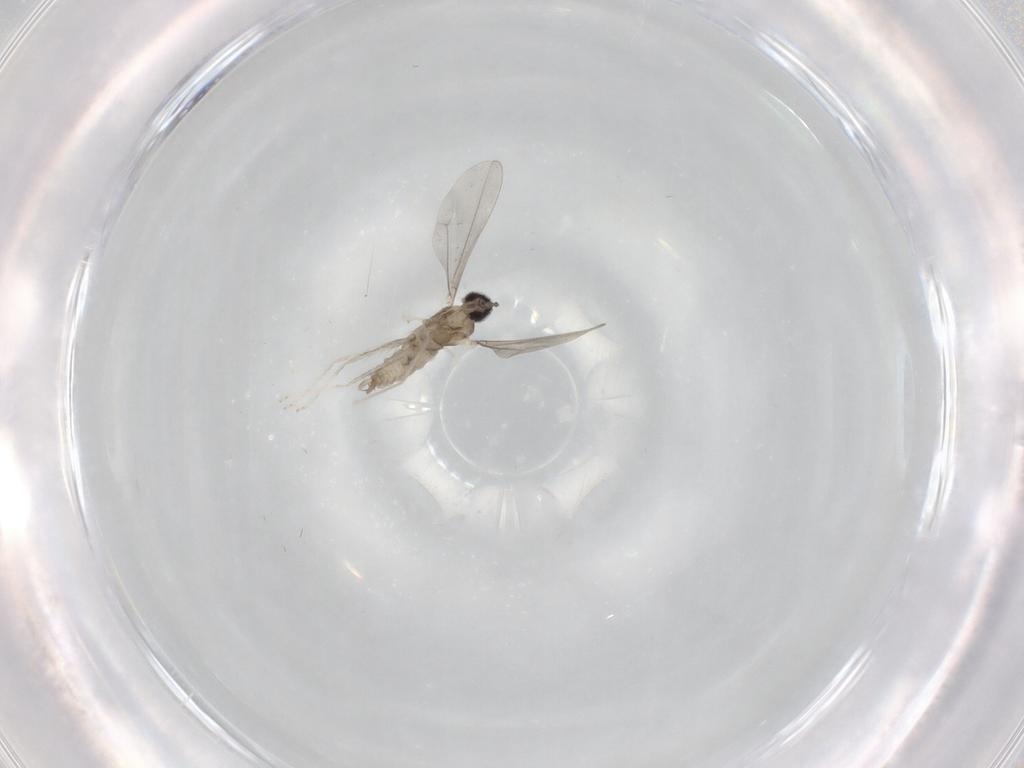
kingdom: Animalia
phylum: Arthropoda
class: Insecta
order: Diptera
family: Cecidomyiidae
